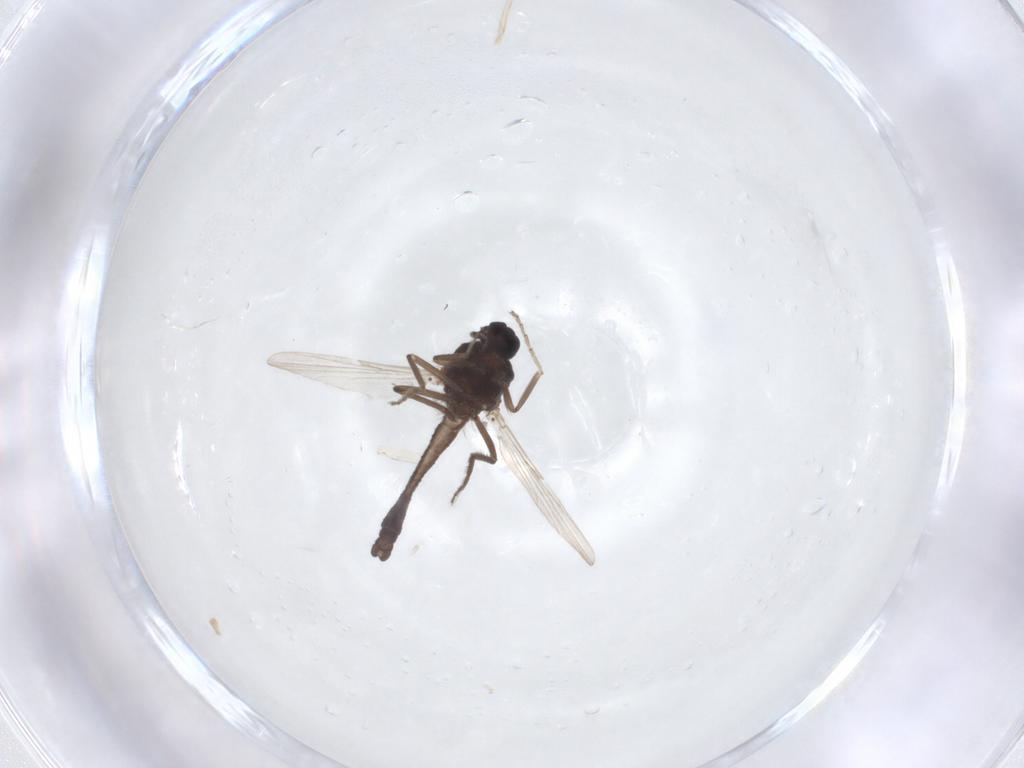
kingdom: Animalia
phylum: Arthropoda
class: Insecta
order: Diptera
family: Ceratopogonidae
